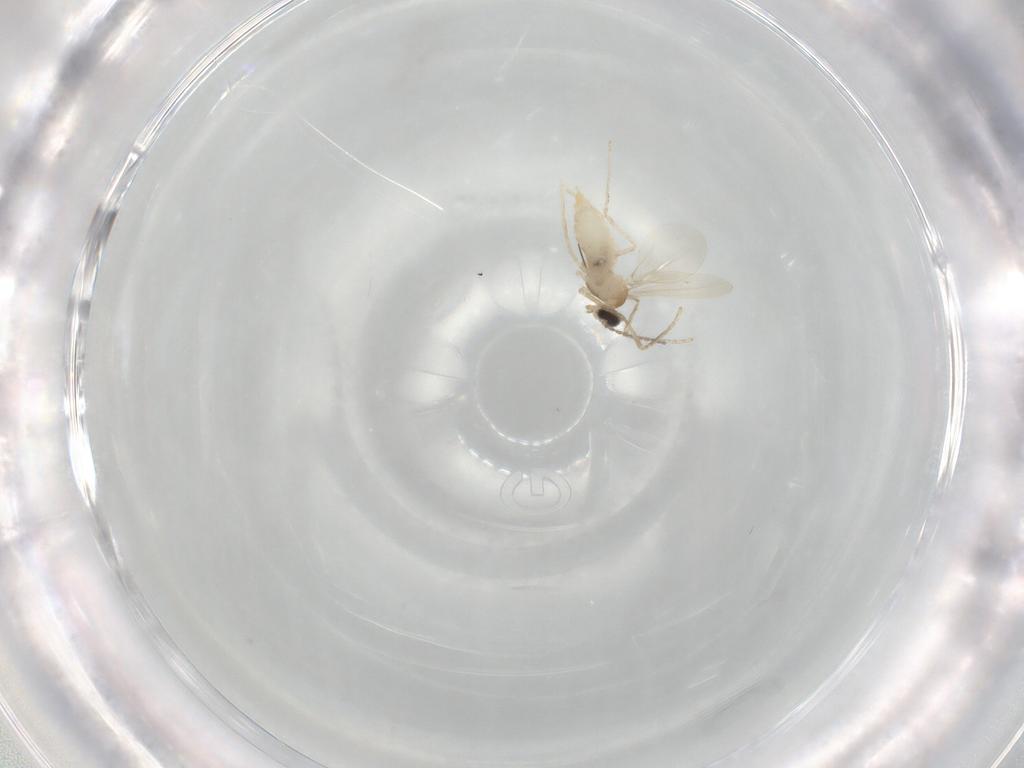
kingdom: Animalia
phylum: Arthropoda
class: Insecta
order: Diptera
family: Cecidomyiidae
